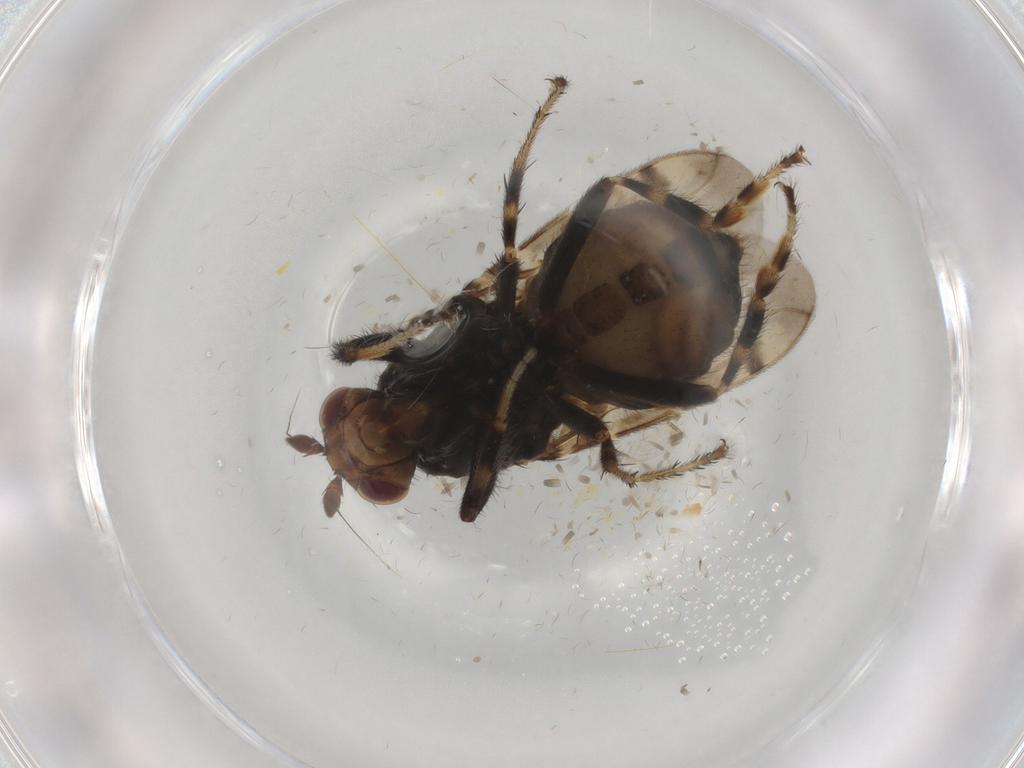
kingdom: Animalia
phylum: Arthropoda
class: Insecta
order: Diptera
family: Sphaeroceridae
